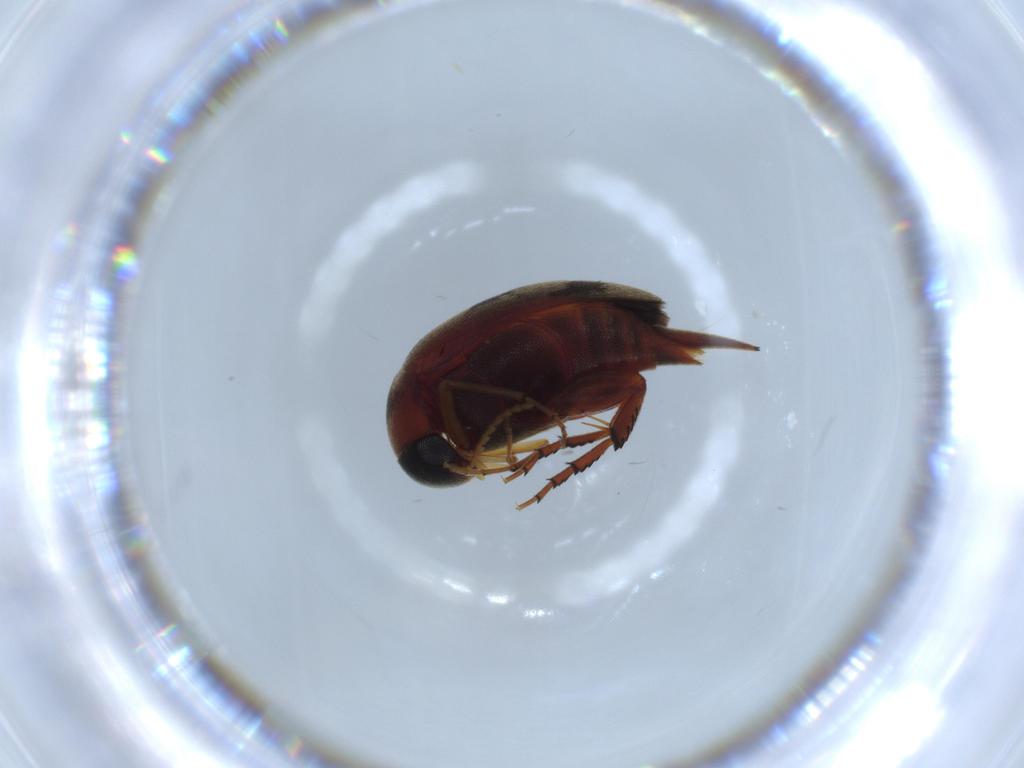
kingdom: Animalia
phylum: Arthropoda
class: Insecta
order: Coleoptera
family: Mordellidae
